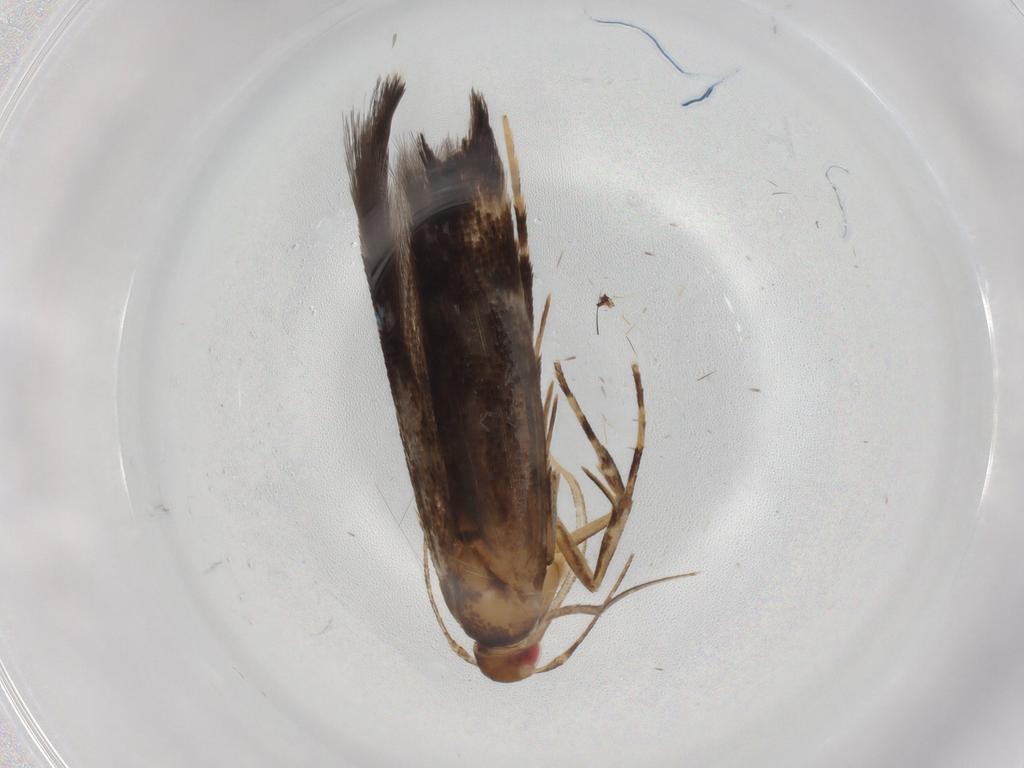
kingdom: Animalia
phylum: Arthropoda
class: Insecta
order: Lepidoptera
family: Cosmopterigidae
